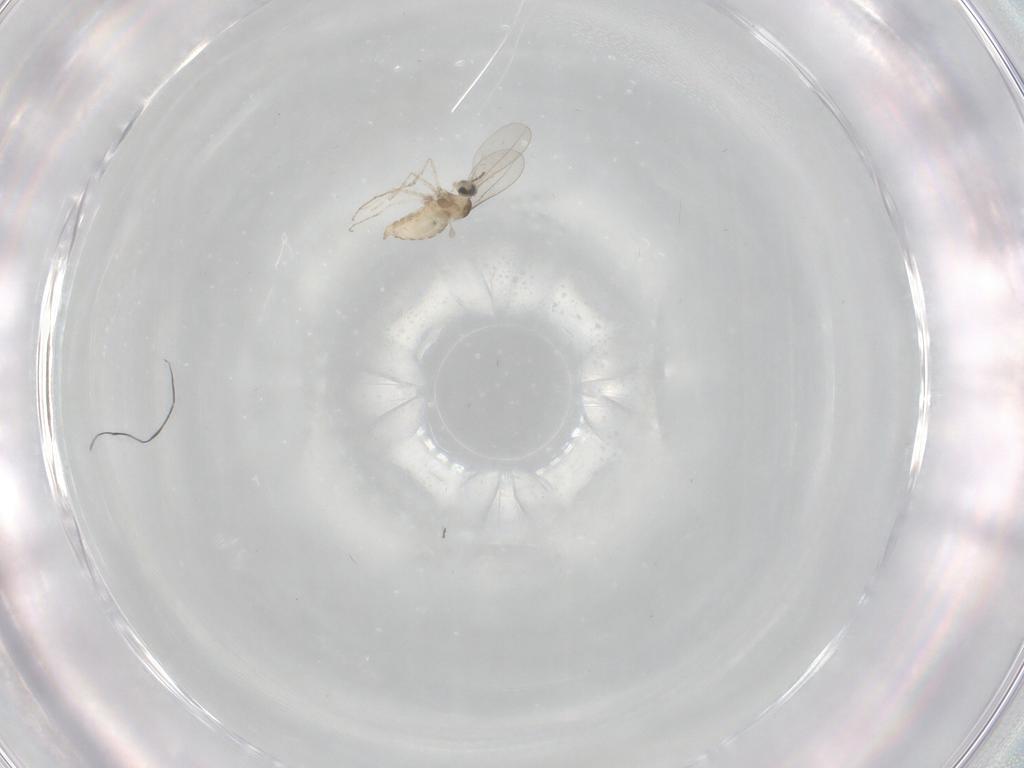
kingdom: Animalia
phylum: Arthropoda
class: Insecta
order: Diptera
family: Cecidomyiidae
